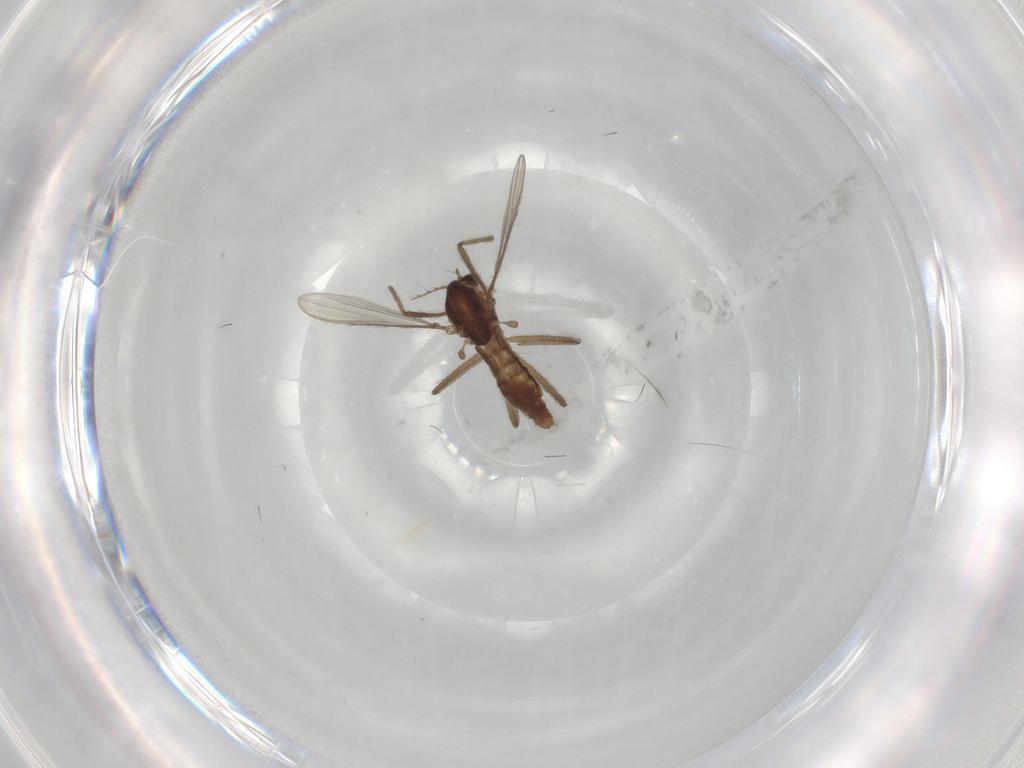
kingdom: Animalia
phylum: Arthropoda
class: Insecta
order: Diptera
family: Chironomidae
